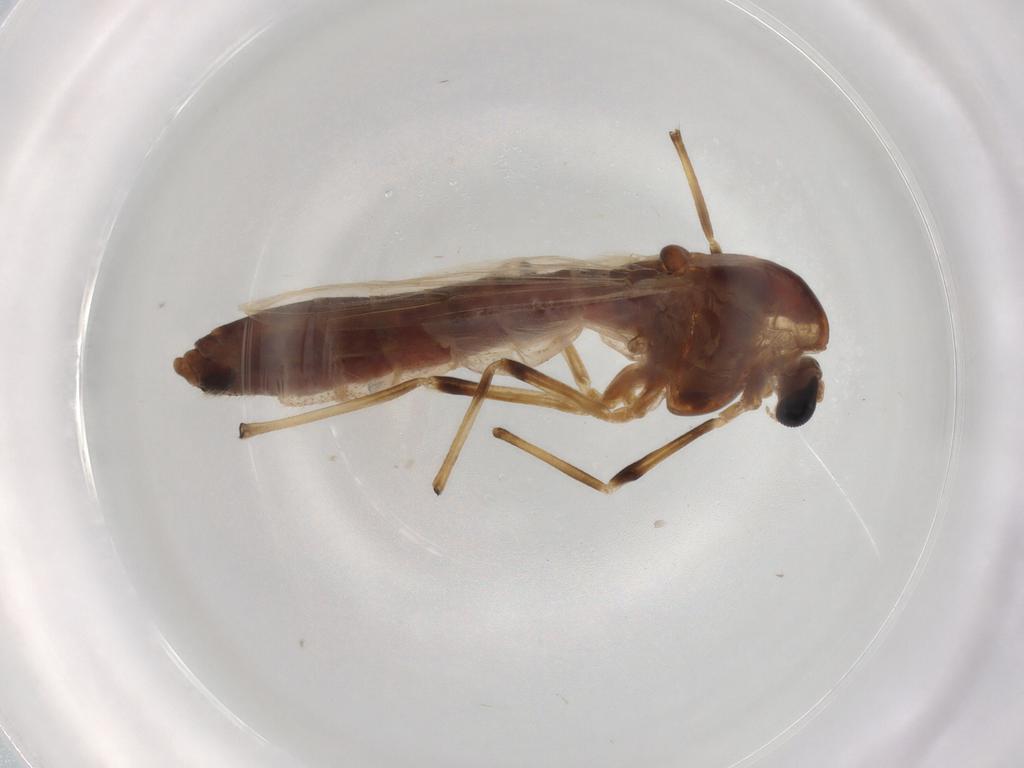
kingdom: Animalia
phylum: Arthropoda
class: Insecta
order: Diptera
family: Chironomidae
